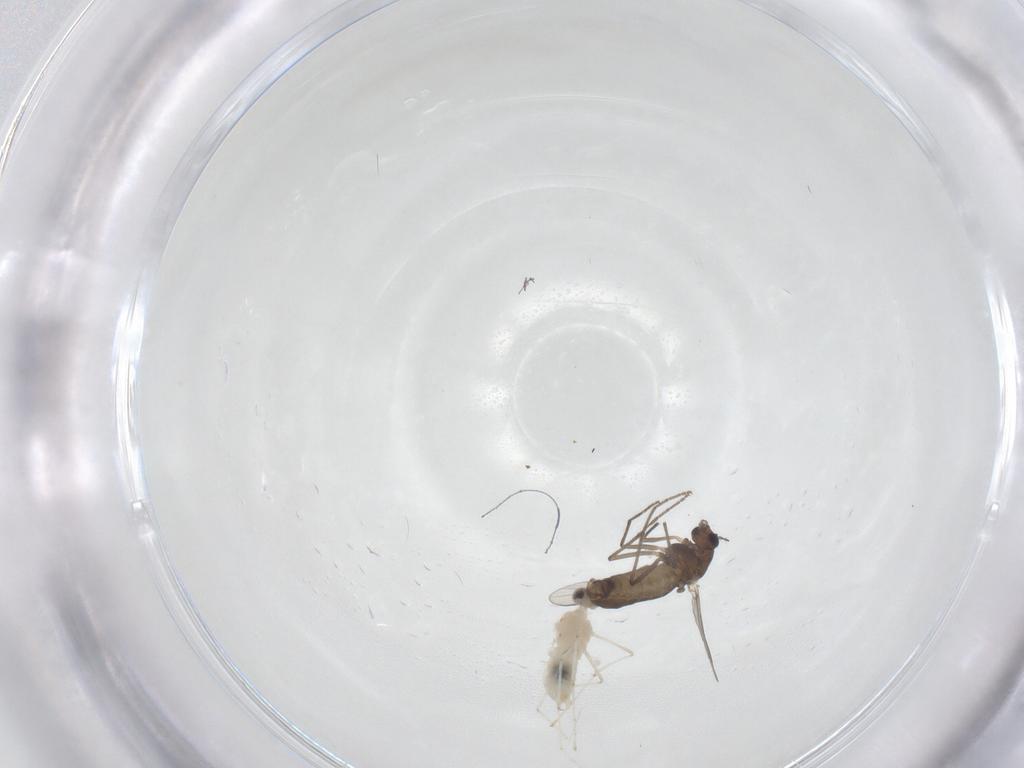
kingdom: Animalia
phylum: Arthropoda
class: Insecta
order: Diptera
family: Chironomidae
